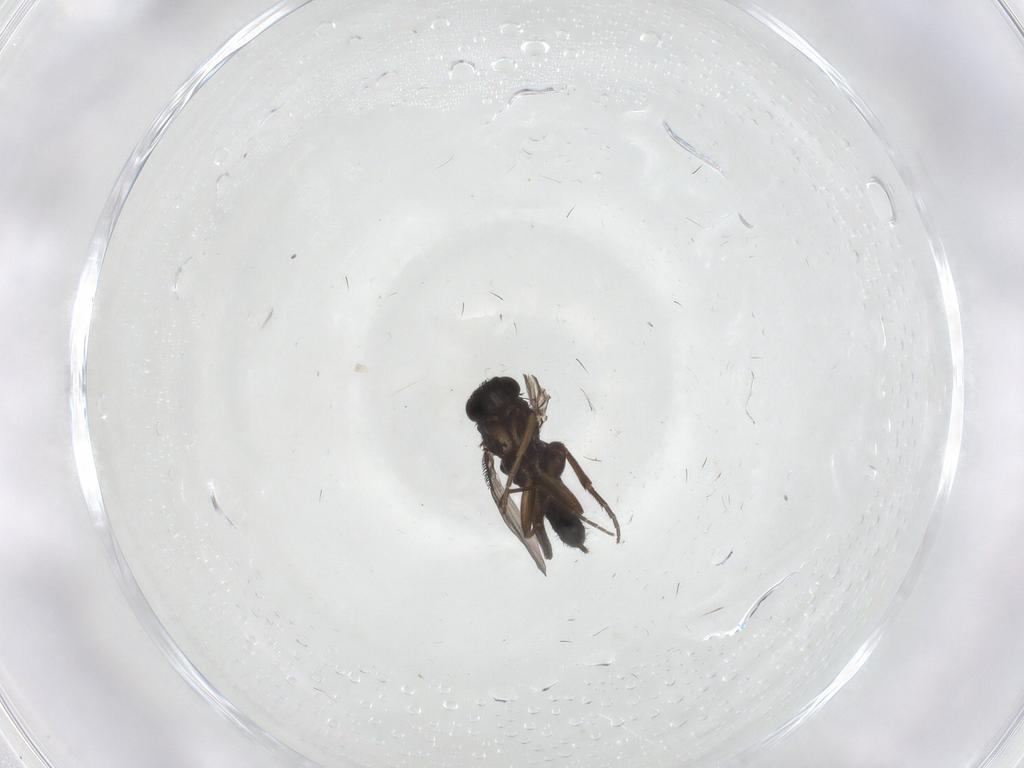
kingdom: Animalia
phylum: Arthropoda
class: Insecta
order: Diptera
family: Phoridae
